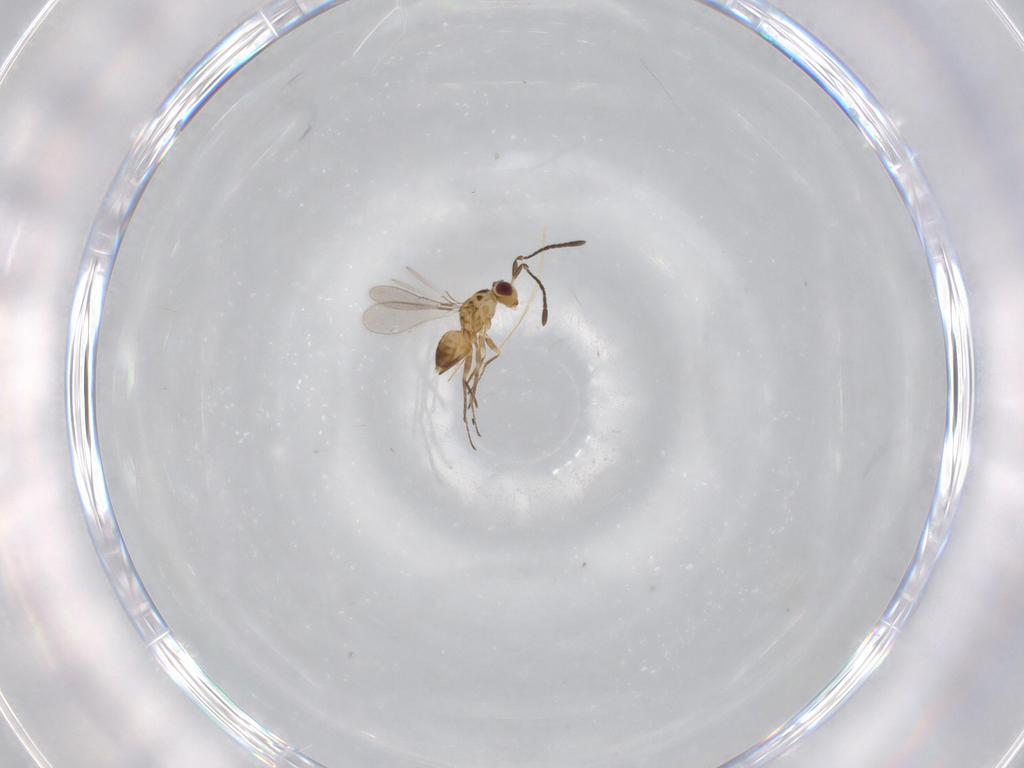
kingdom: Animalia
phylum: Arthropoda
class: Insecta
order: Hymenoptera
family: Mymaridae
